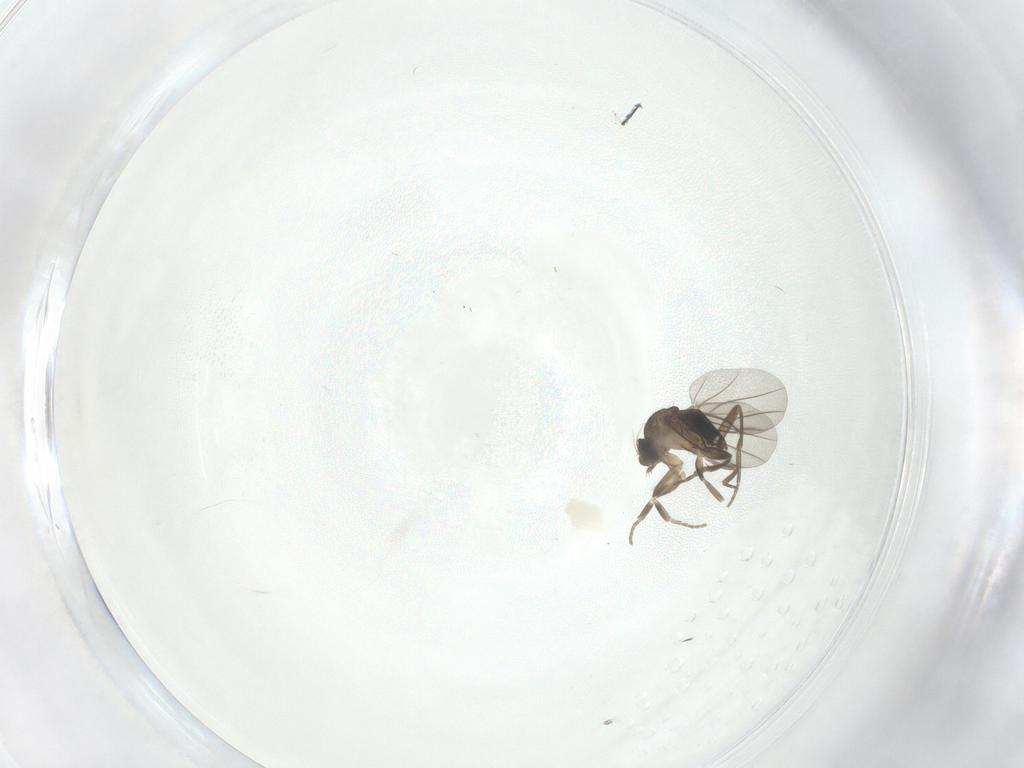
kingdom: Animalia
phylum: Arthropoda
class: Insecta
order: Diptera
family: Phoridae
